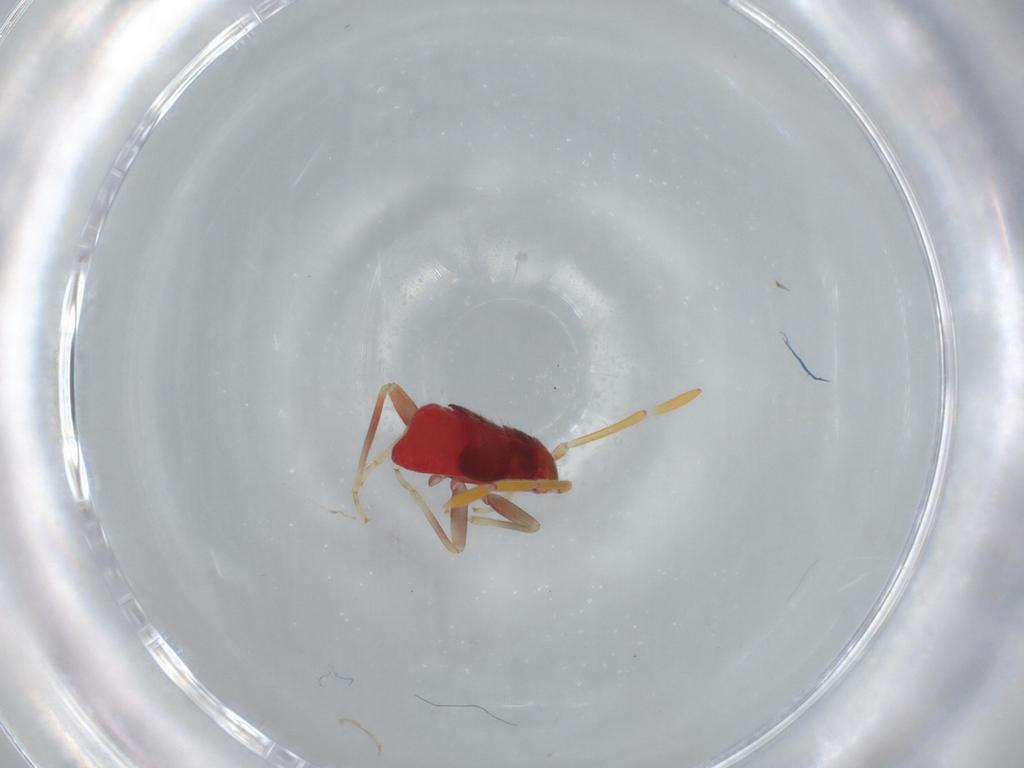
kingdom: Animalia
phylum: Arthropoda
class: Insecta
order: Hemiptera
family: Miridae
